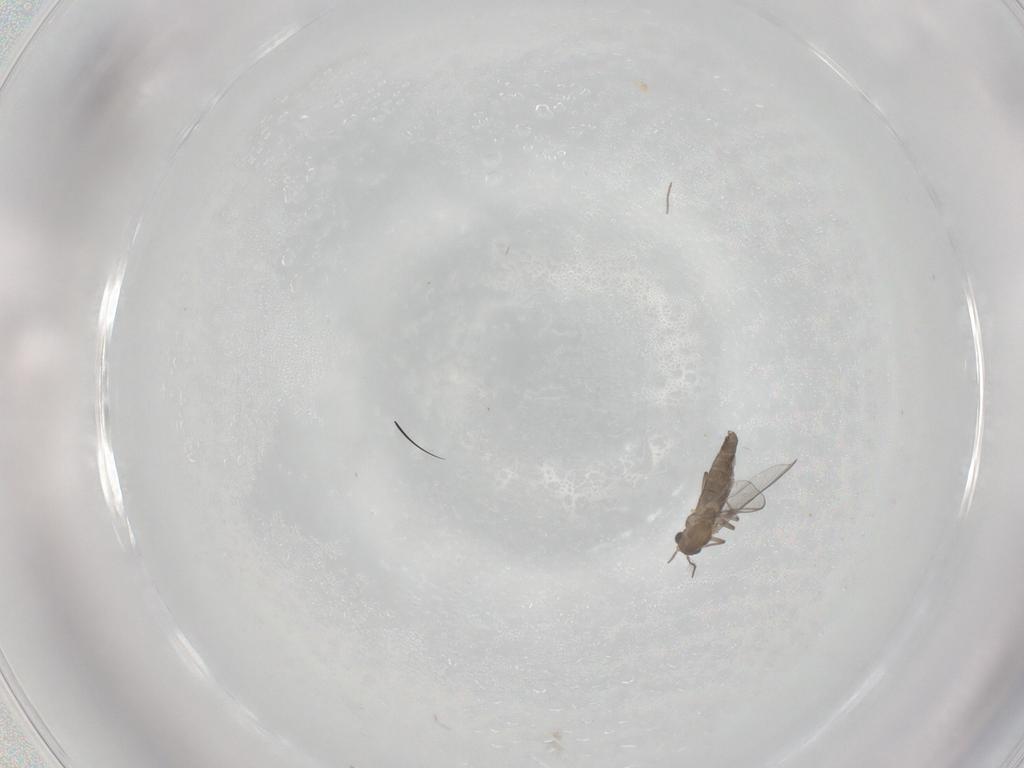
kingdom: Animalia
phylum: Arthropoda
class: Insecta
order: Diptera
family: Chironomidae
